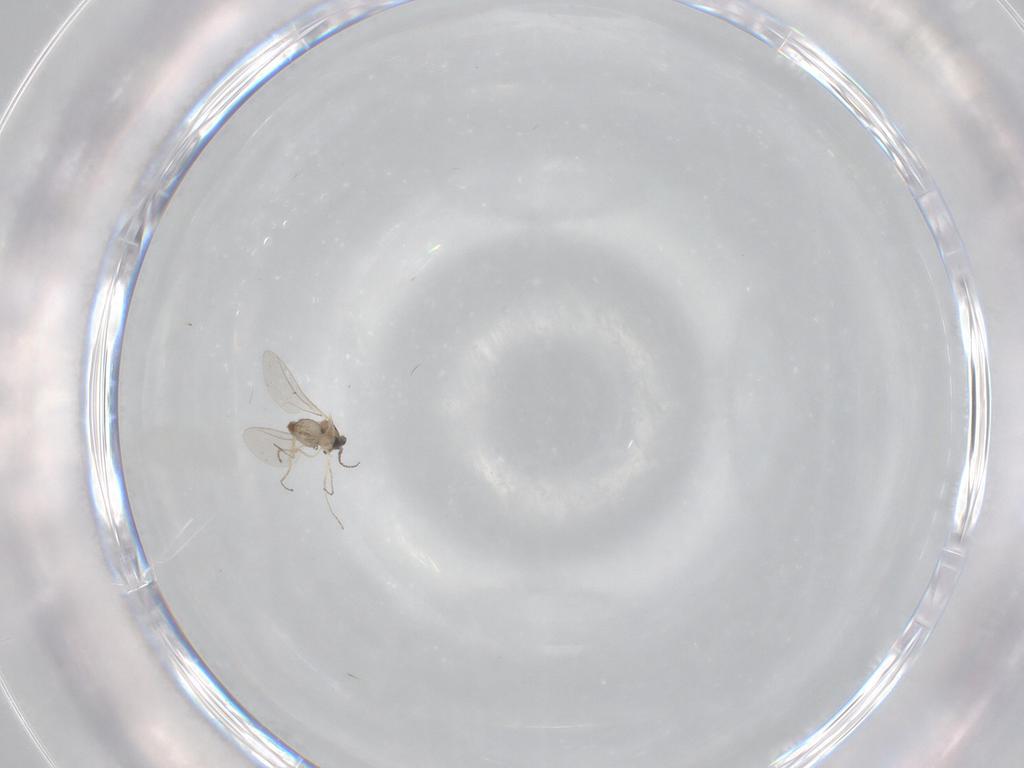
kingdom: Animalia
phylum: Arthropoda
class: Insecta
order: Diptera
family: Cecidomyiidae
